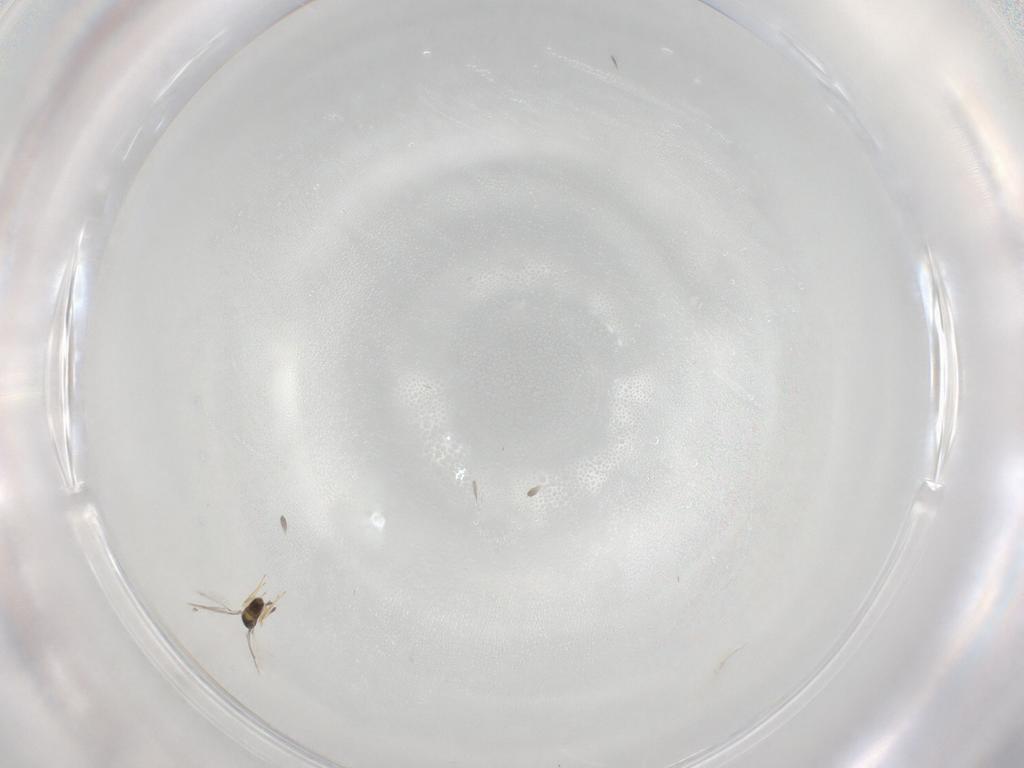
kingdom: Animalia
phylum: Arthropoda
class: Insecta
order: Hymenoptera
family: Mymaridae
